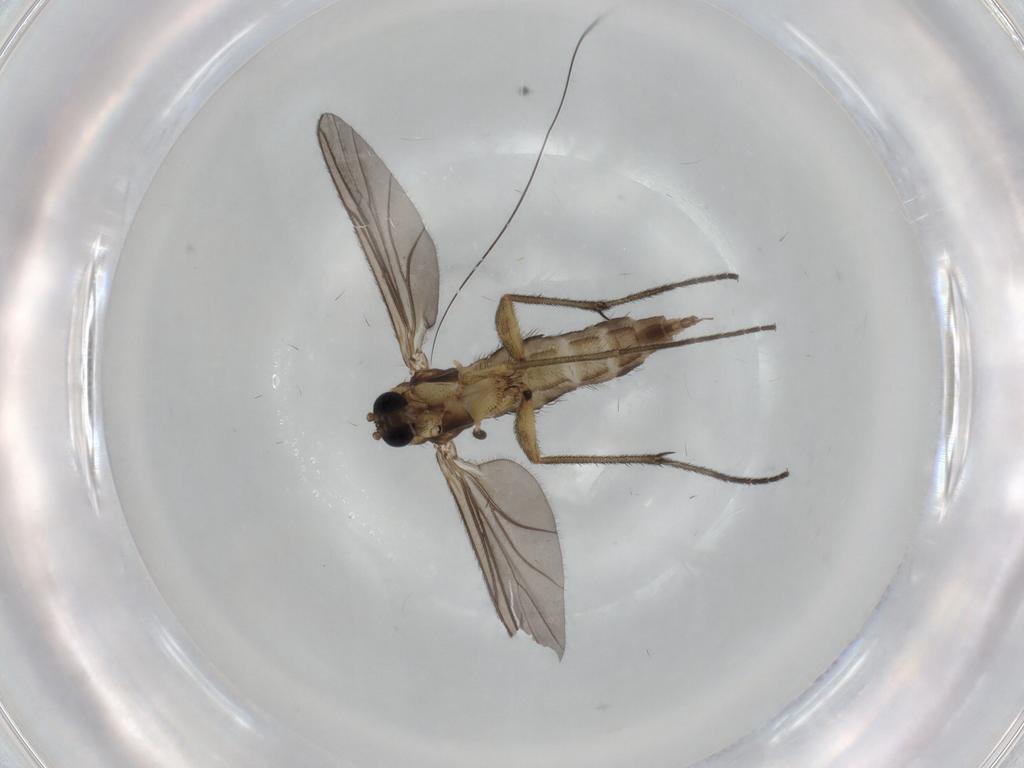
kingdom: Animalia
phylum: Arthropoda
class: Insecta
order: Diptera
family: Sciaridae
